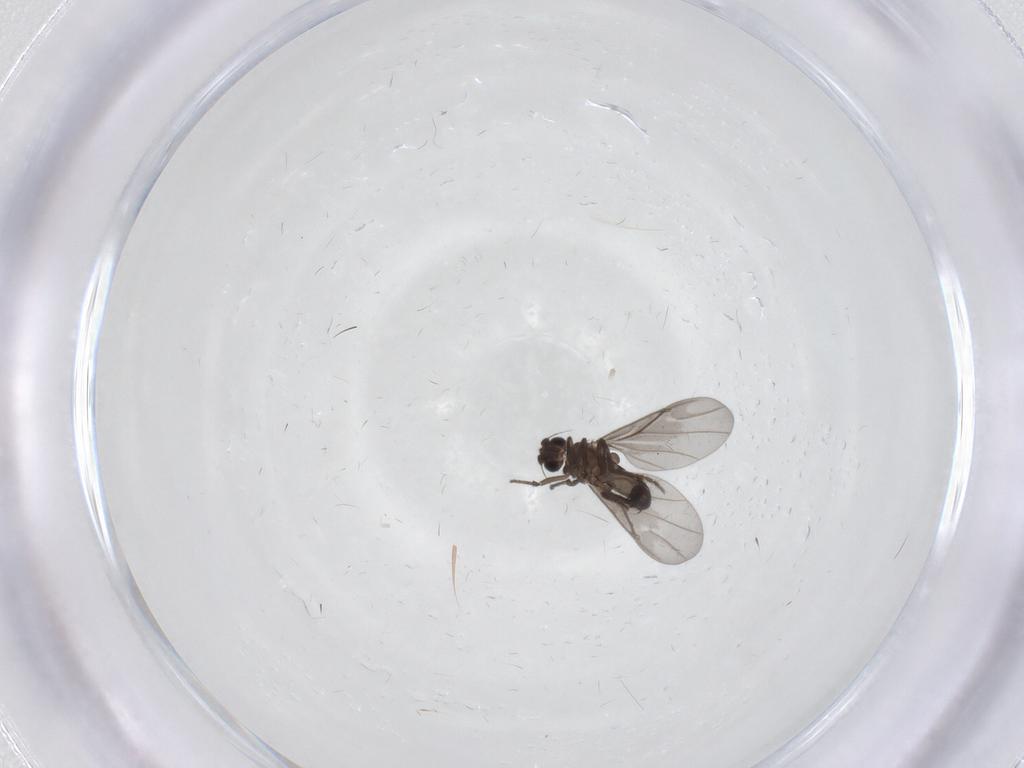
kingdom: Animalia
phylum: Arthropoda
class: Insecta
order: Diptera
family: Phoridae
